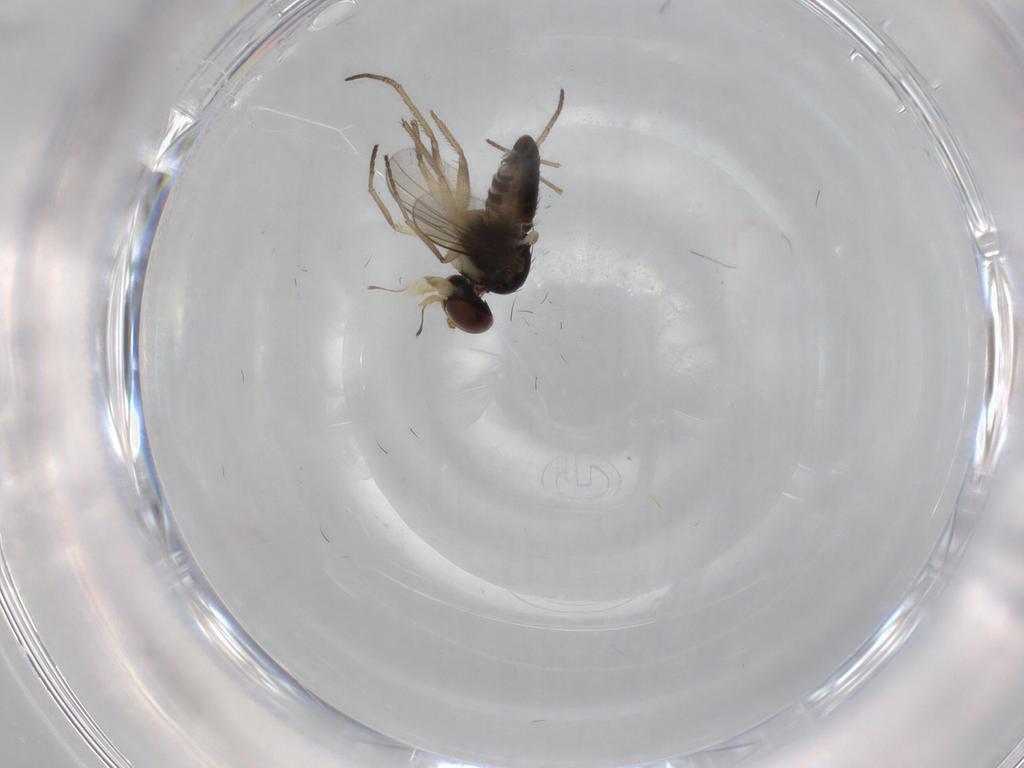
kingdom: Animalia
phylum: Arthropoda
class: Insecta
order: Diptera
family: Dolichopodidae
